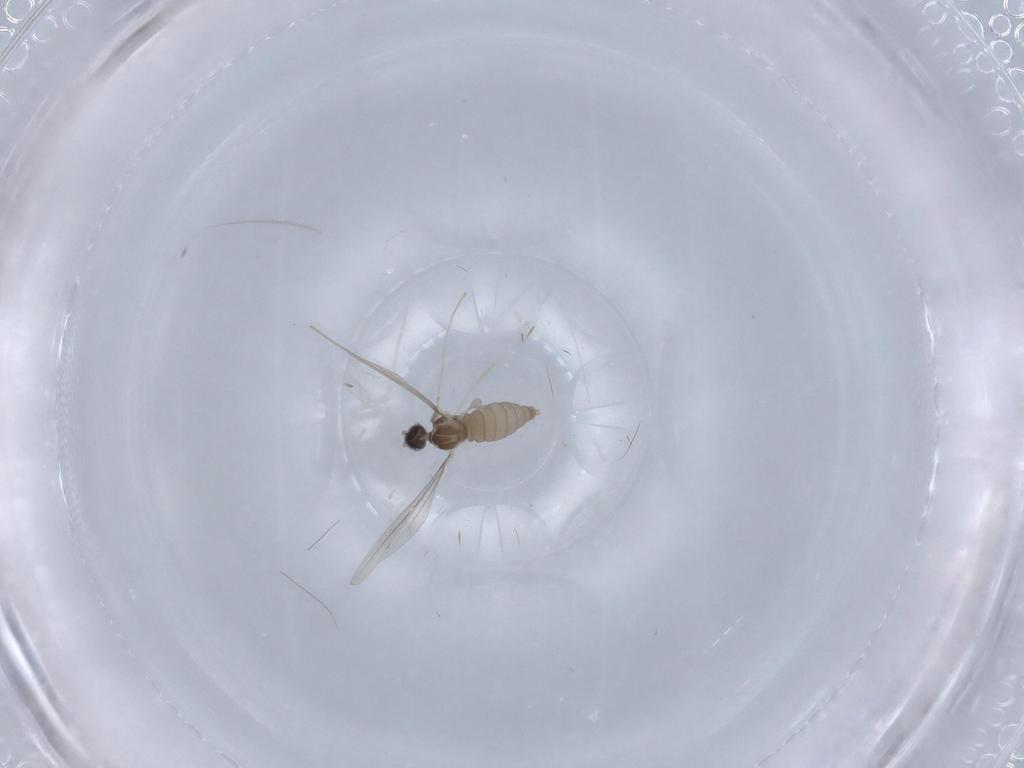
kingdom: Animalia
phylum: Arthropoda
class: Insecta
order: Diptera
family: Cecidomyiidae
